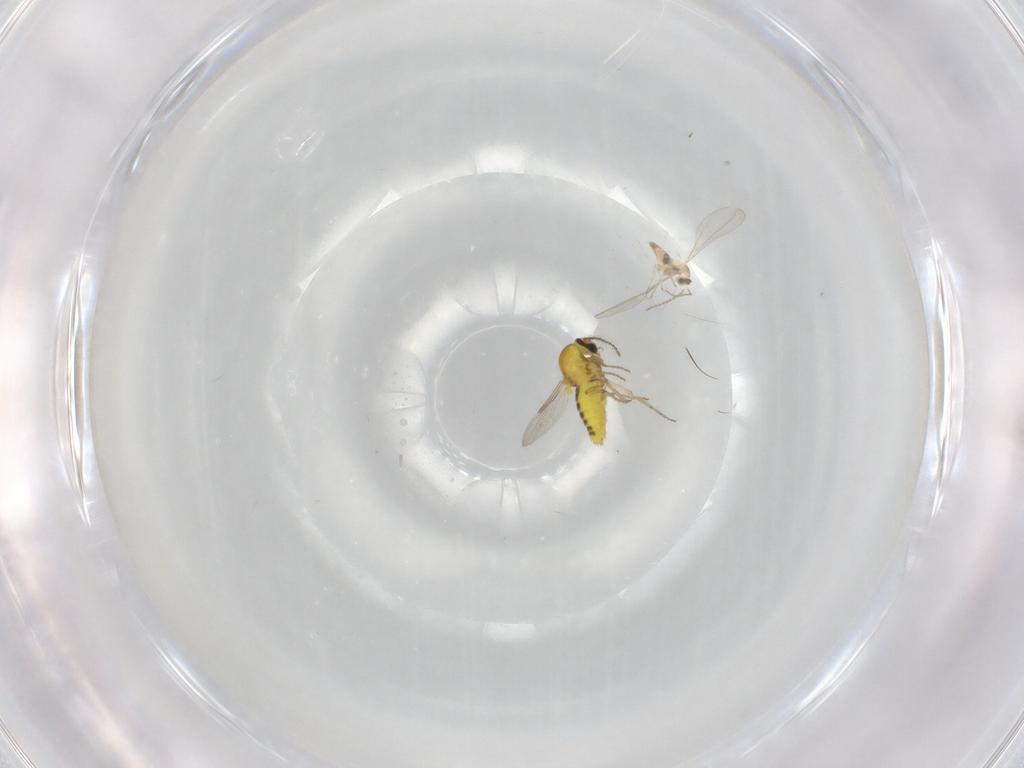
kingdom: Animalia
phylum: Arthropoda
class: Insecta
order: Diptera
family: Ceratopogonidae
